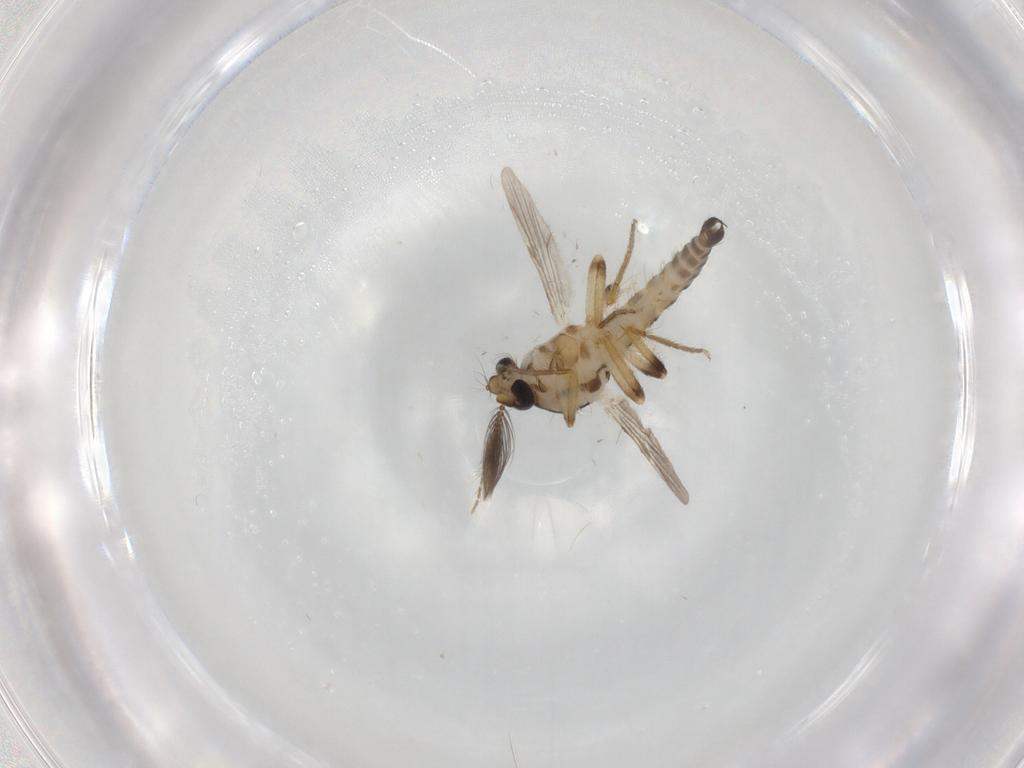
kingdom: Animalia
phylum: Arthropoda
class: Insecta
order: Diptera
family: Ceratopogonidae
